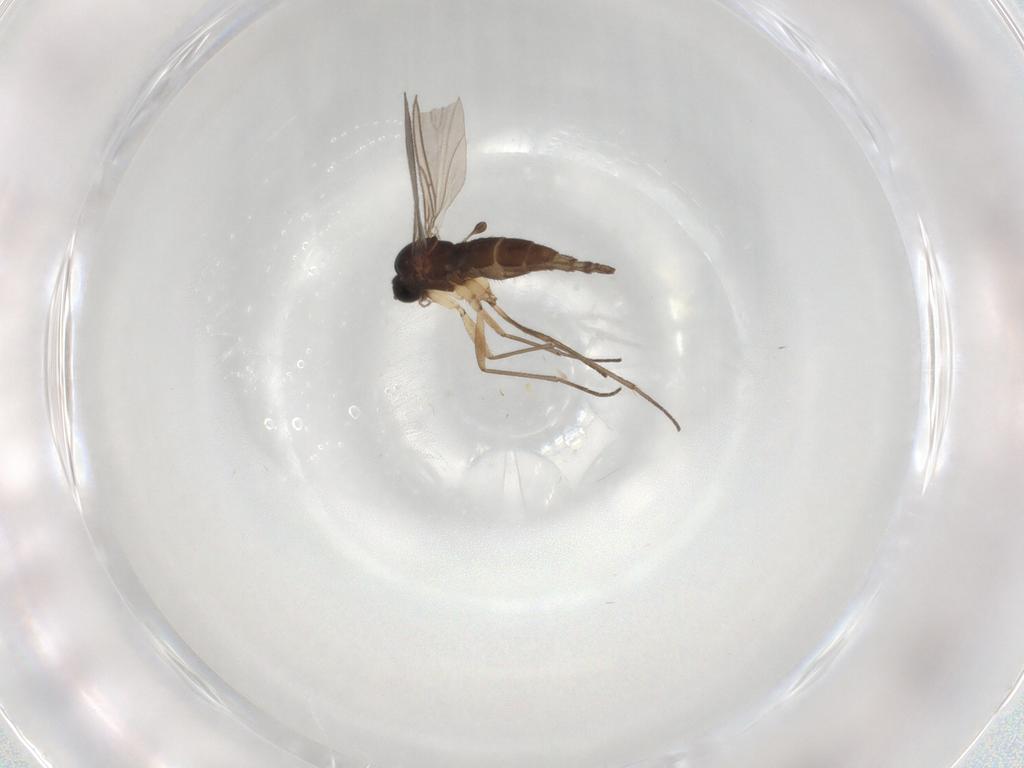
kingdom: Animalia
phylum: Arthropoda
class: Insecta
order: Diptera
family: Sciaridae
